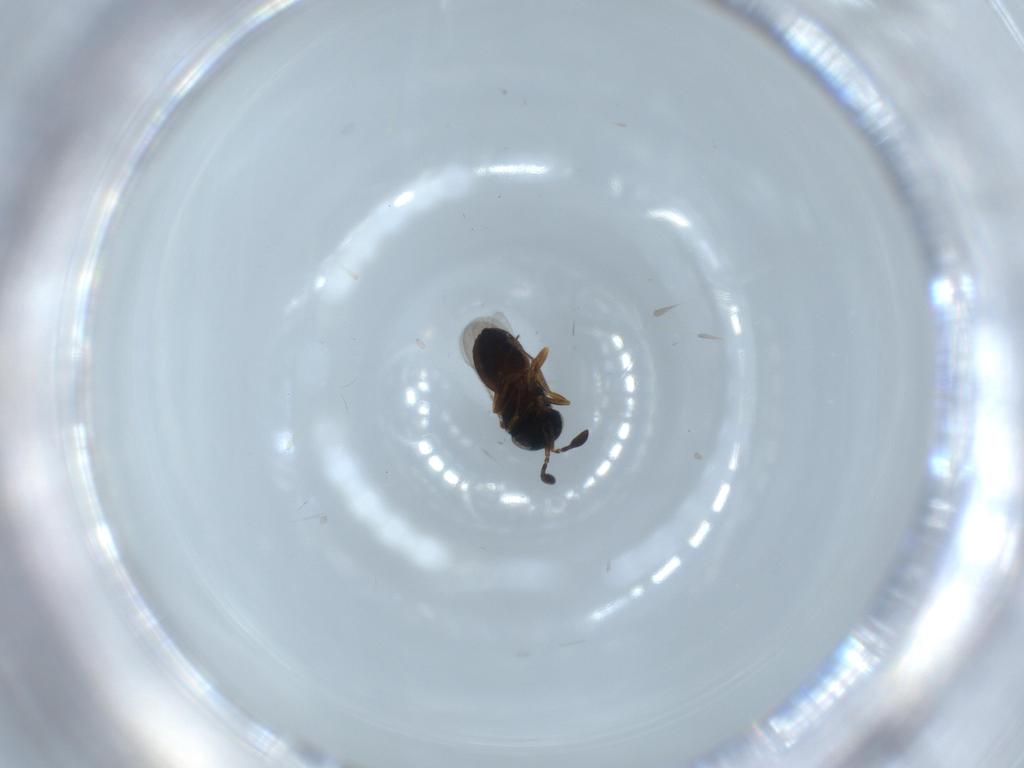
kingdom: Animalia
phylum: Arthropoda
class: Insecta
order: Hymenoptera
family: Scelionidae
